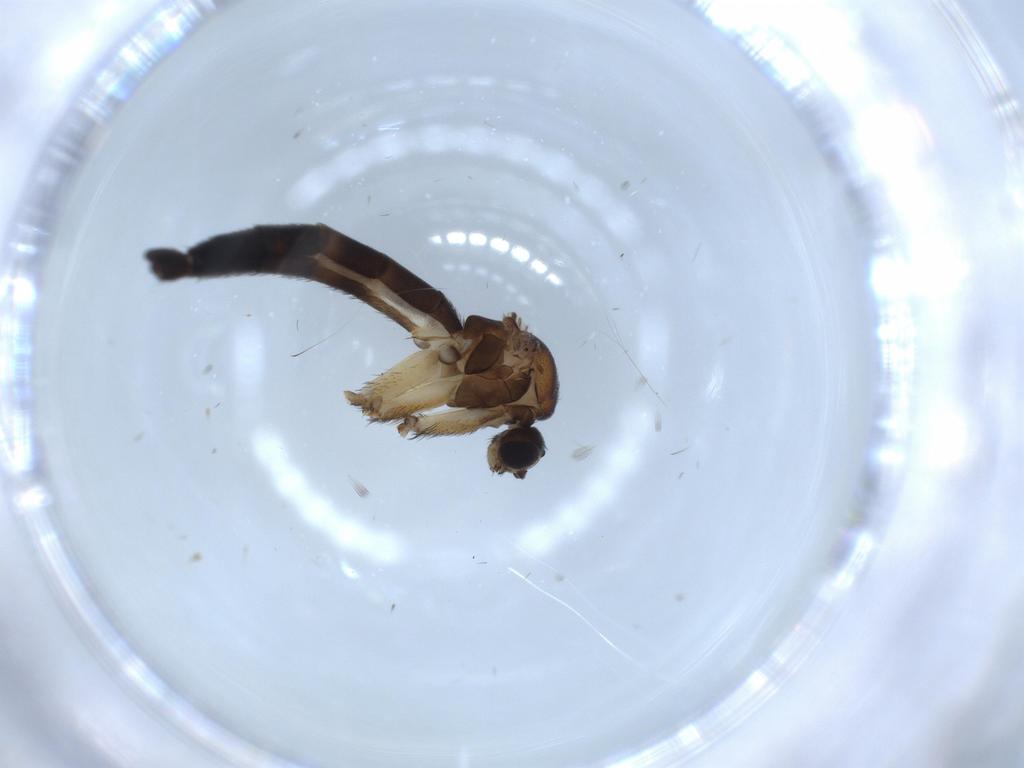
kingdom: Animalia
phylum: Arthropoda
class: Insecta
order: Diptera
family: Keroplatidae
